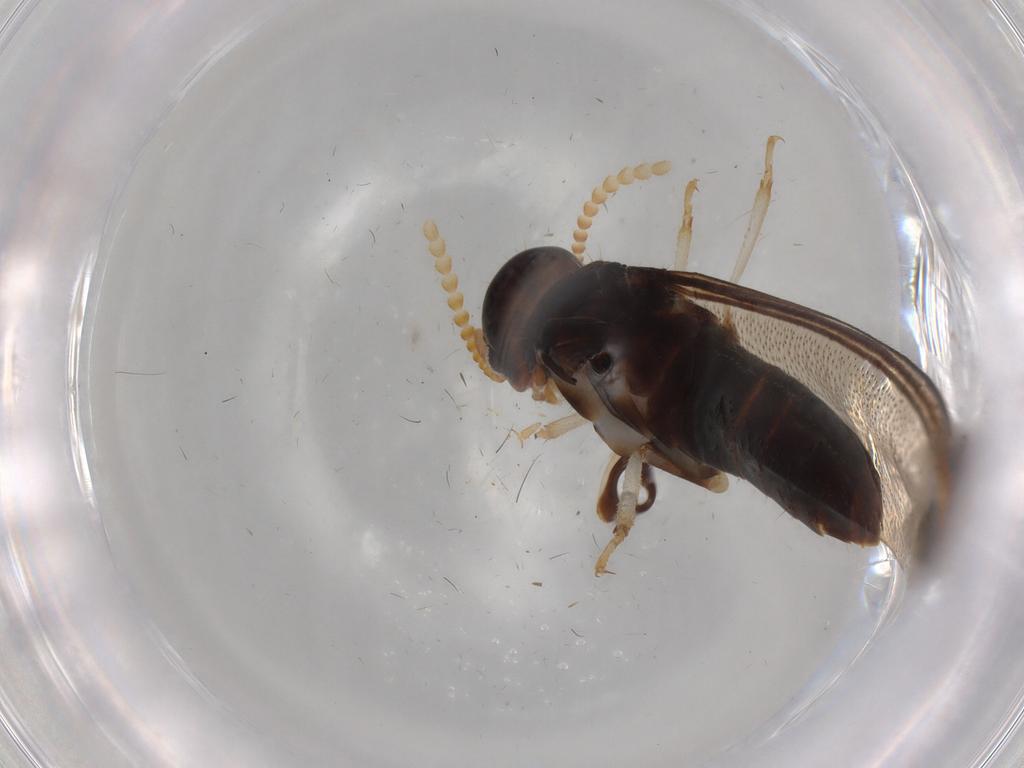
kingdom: Animalia
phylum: Arthropoda
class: Insecta
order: Blattodea
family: Kalotermitidae
